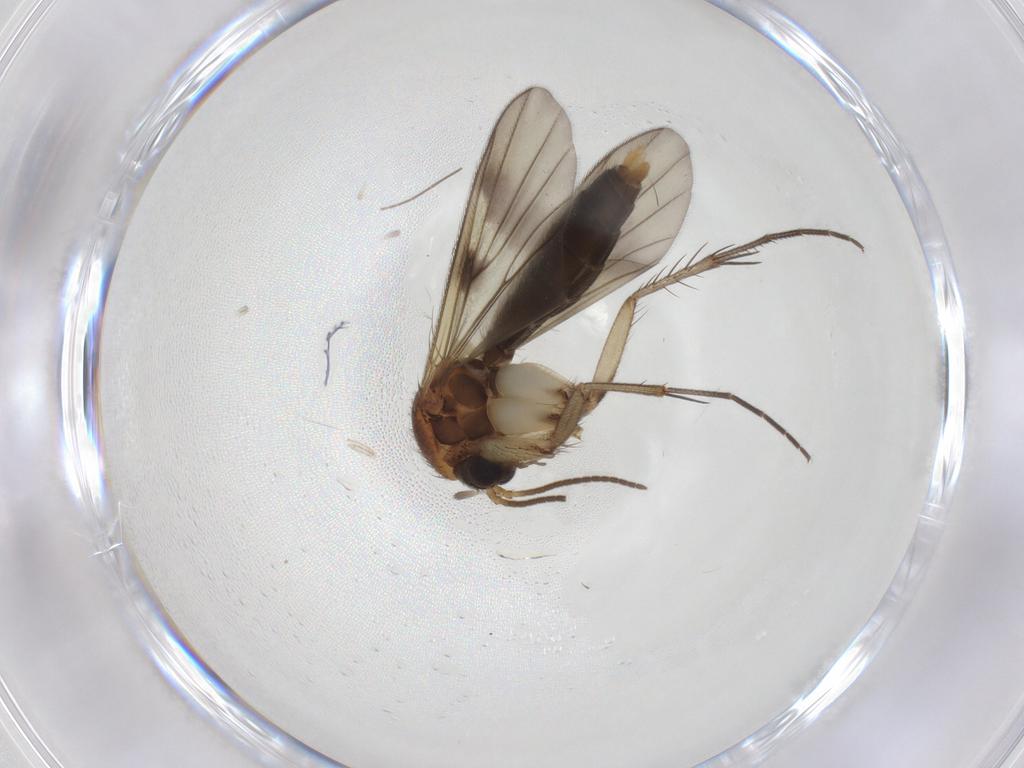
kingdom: Animalia
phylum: Arthropoda
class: Insecta
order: Diptera
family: Mycetophilidae
